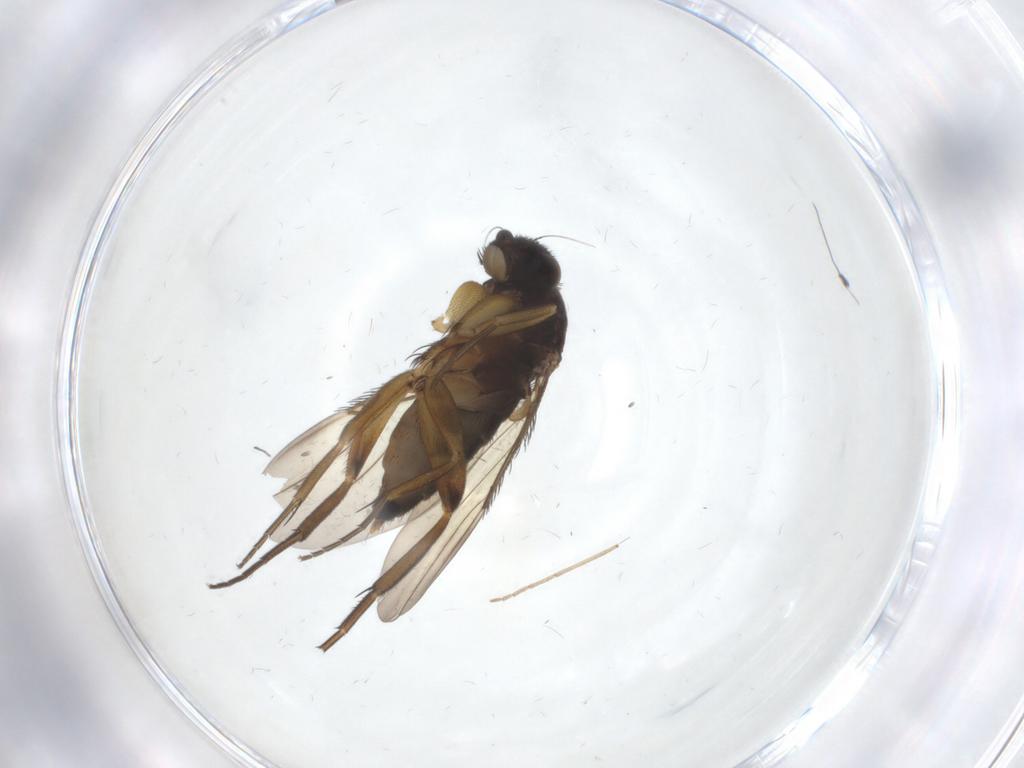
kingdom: Animalia
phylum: Arthropoda
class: Insecta
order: Diptera
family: Phoridae
